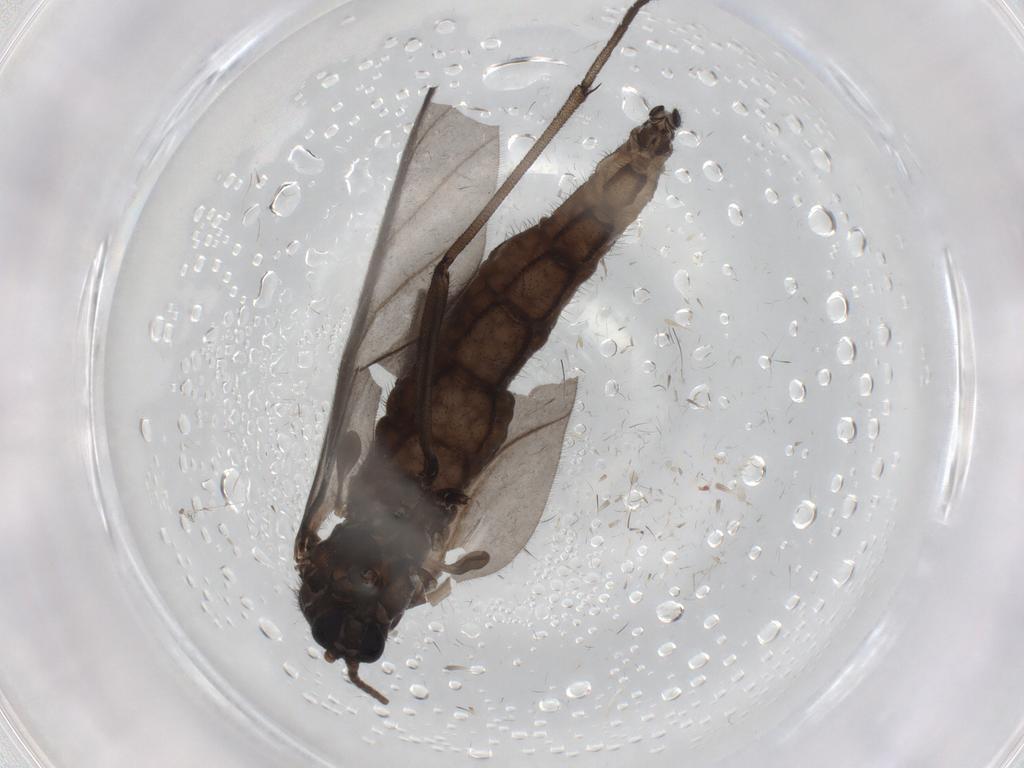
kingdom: Animalia
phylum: Arthropoda
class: Insecta
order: Diptera
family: Sciaridae
